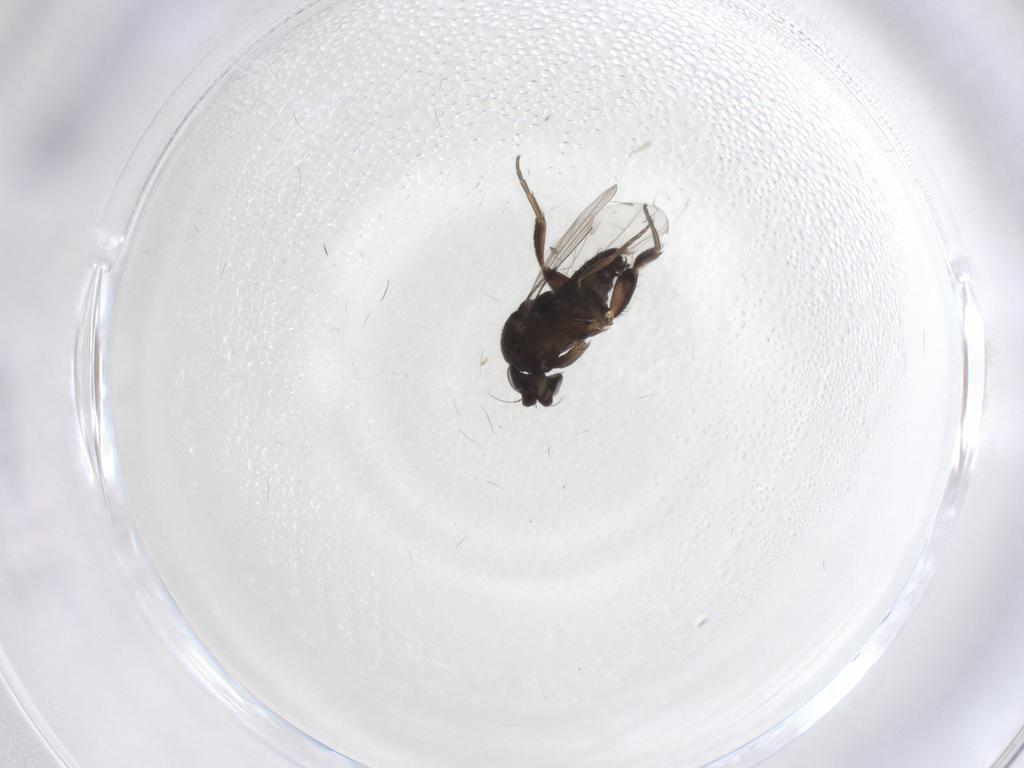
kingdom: Animalia
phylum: Arthropoda
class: Insecta
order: Diptera
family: Phoridae
